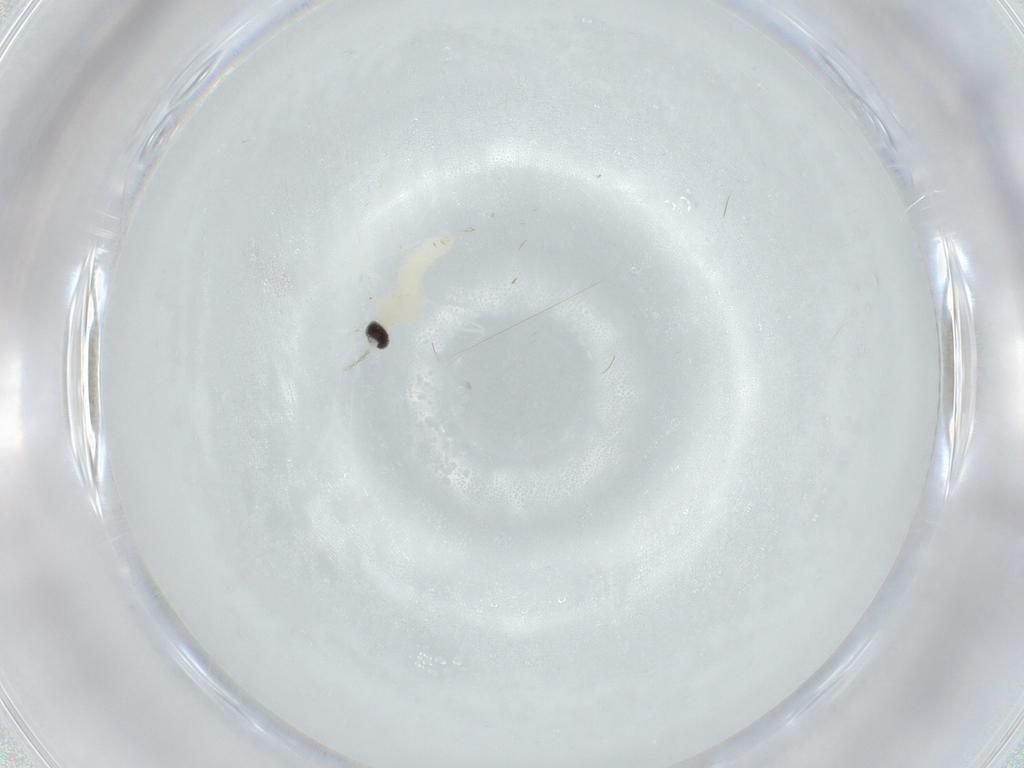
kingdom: Animalia
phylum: Arthropoda
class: Insecta
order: Diptera
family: Cecidomyiidae
